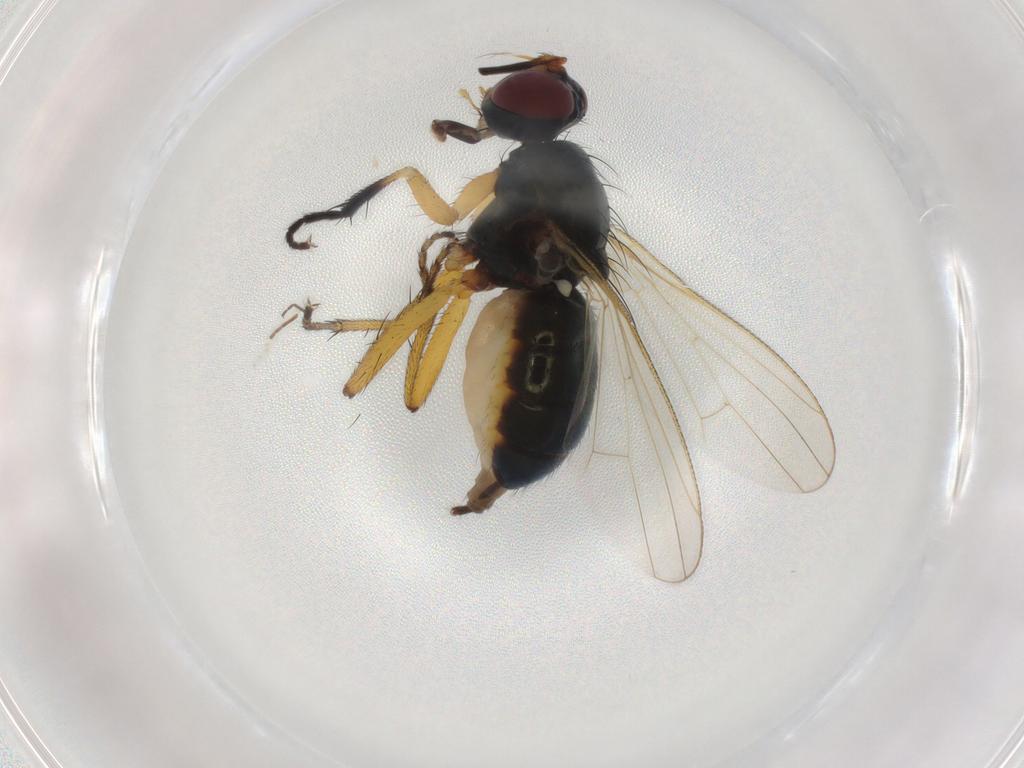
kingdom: Animalia
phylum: Arthropoda
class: Insecta
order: Diptera
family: Muscidae
